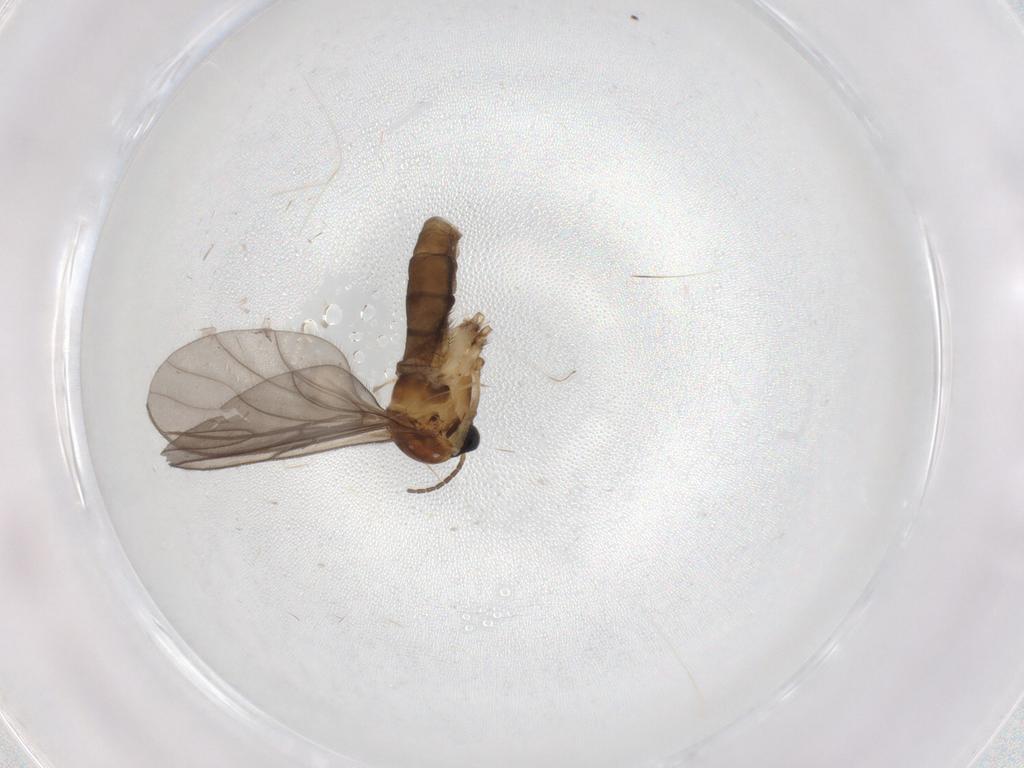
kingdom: Animalia
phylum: Arthropoda
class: Insecta
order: Diptera
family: Sciaridae
